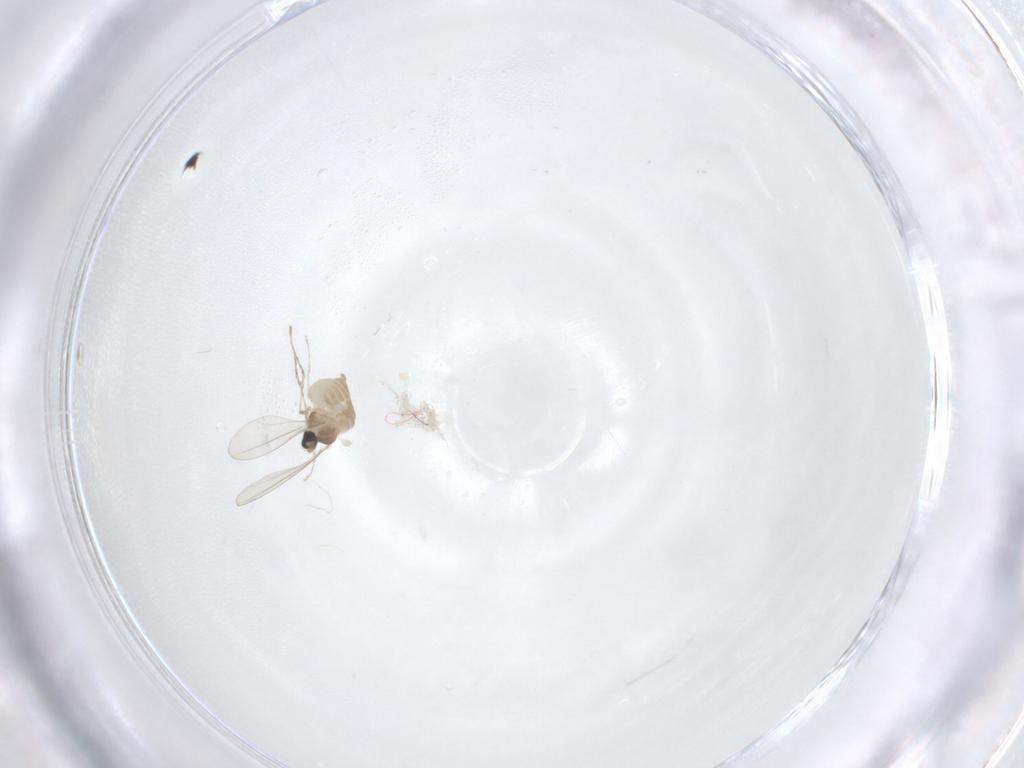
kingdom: Animalia
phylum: Arthropoda
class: Insecta
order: Diptera
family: Cecidomyiidae
